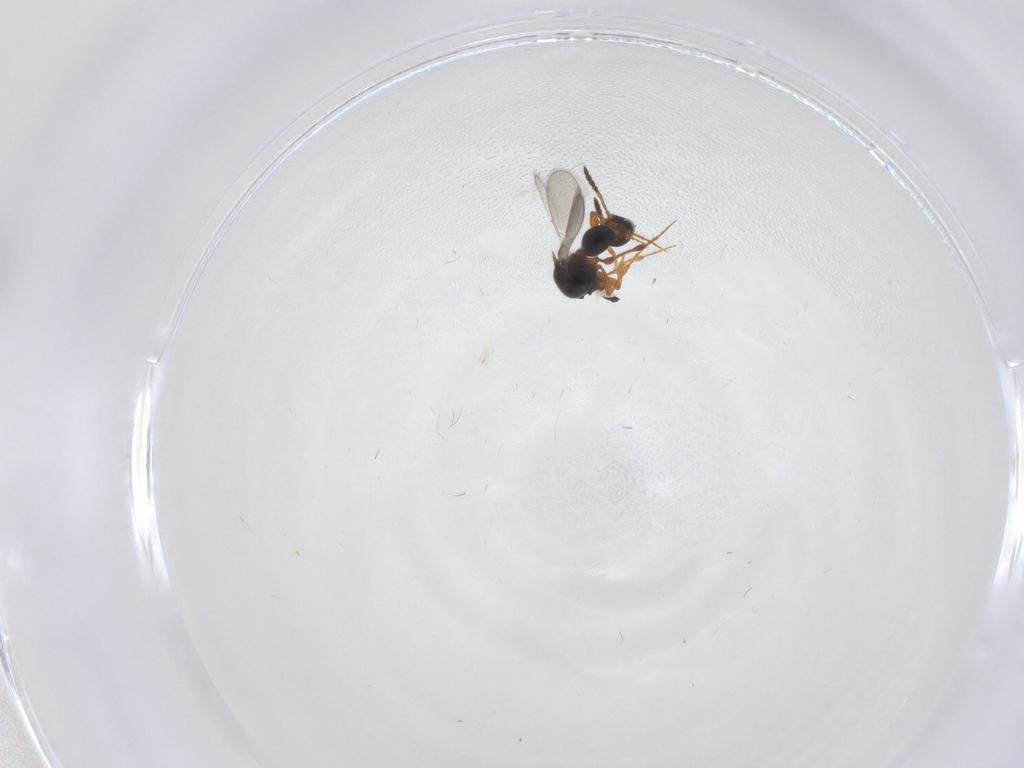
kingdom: Animalia
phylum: Arthropoda
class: Insecta
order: Hymenoptera
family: Platygastridae
